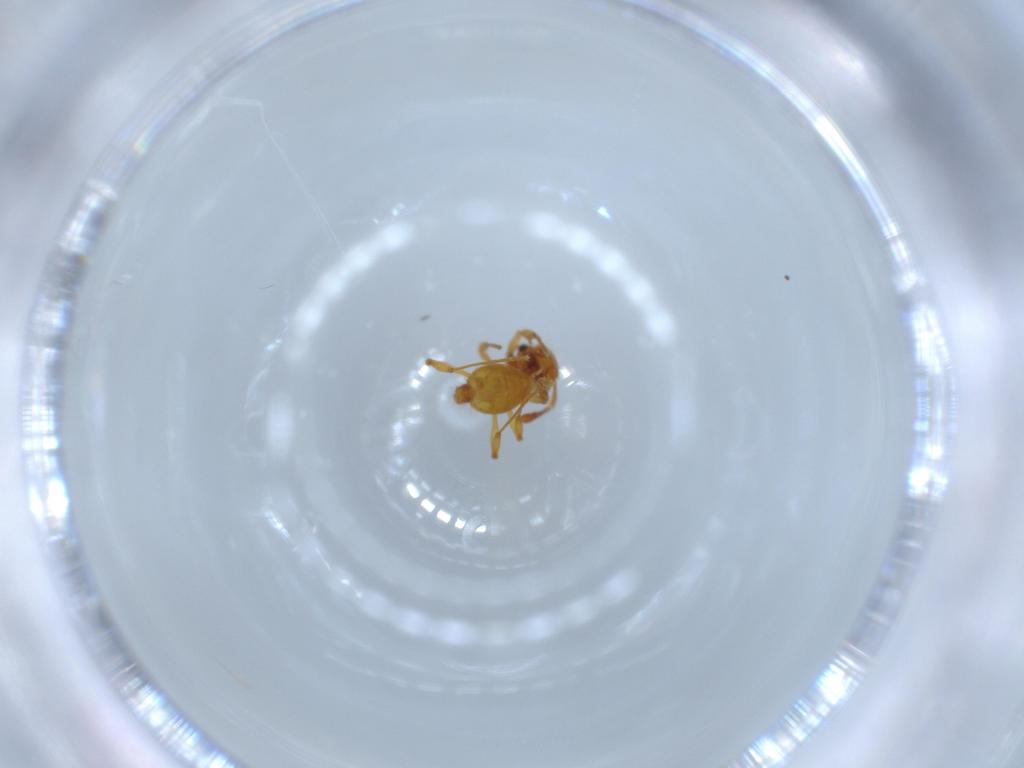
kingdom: Animalia
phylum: Arthropoda
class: Insecta
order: Hymenoptera
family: Formicidae
